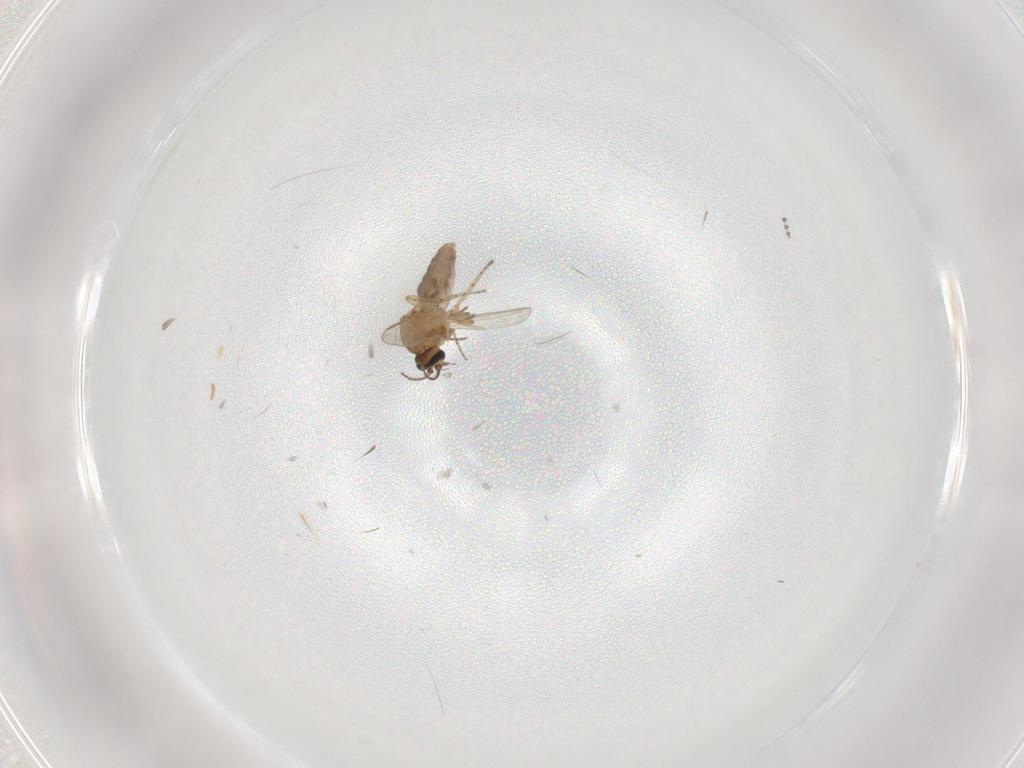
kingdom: Animalia
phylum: Arthropoda
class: Insecta
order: Diptera
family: Ceratopogonidae
